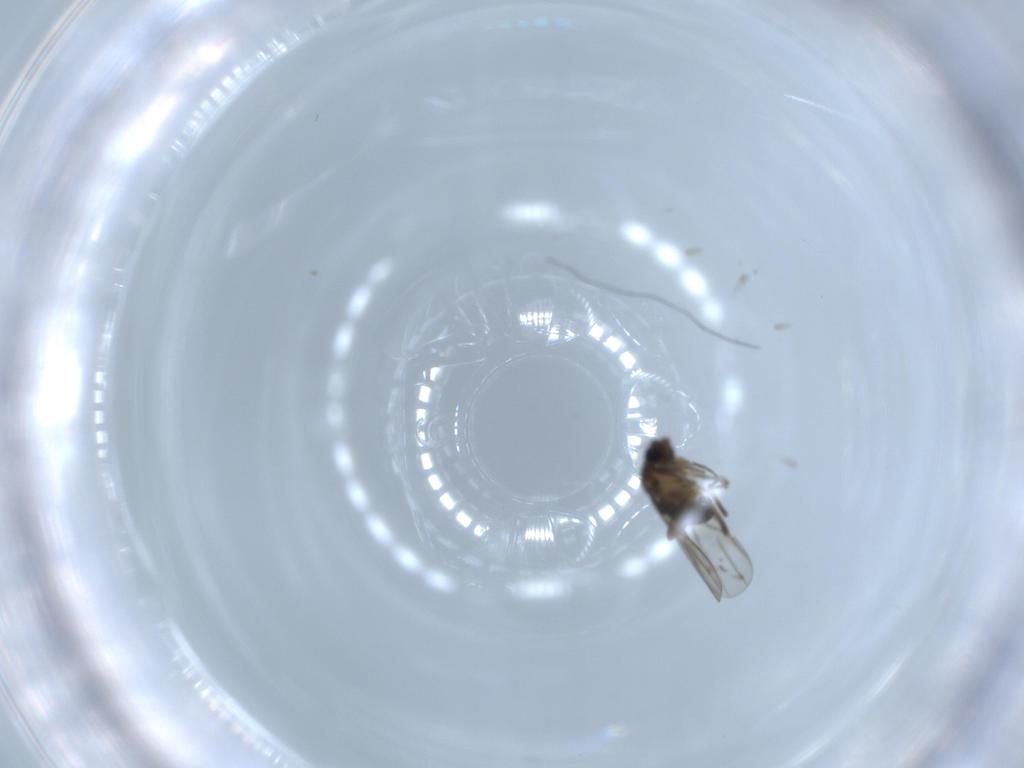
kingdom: Animalia
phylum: Arthropoda
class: Insecta
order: Diptera
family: Phoridae
